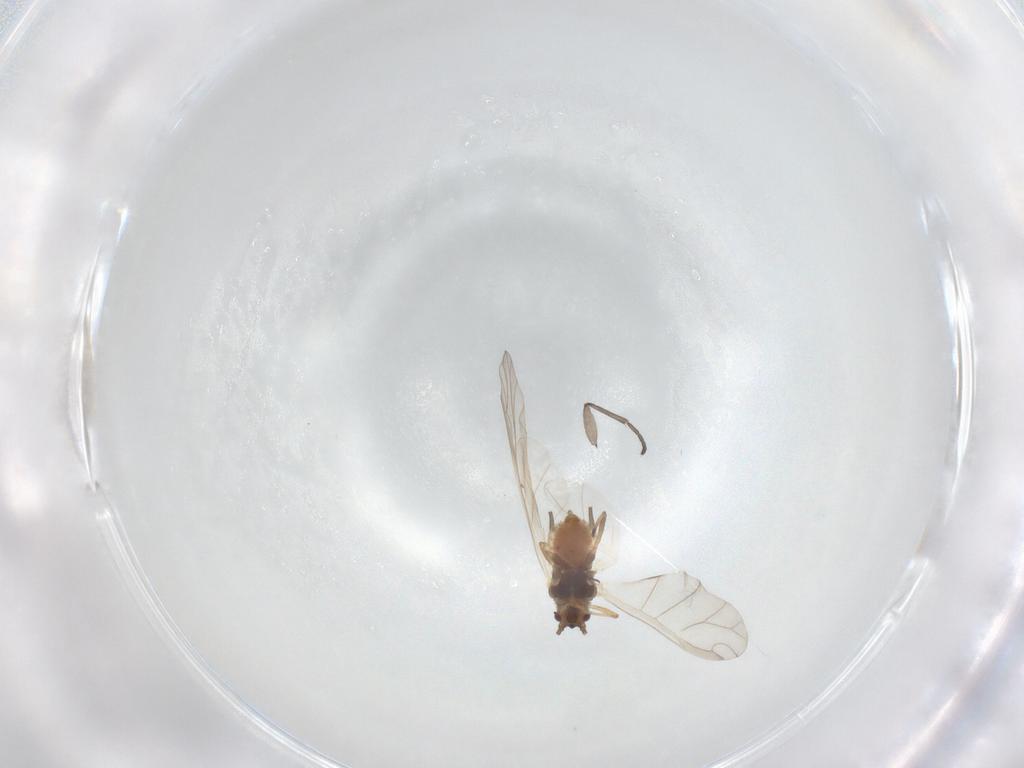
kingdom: Animalia
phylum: Arthropoda
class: Insecta
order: Hemiptera
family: Aphididae
